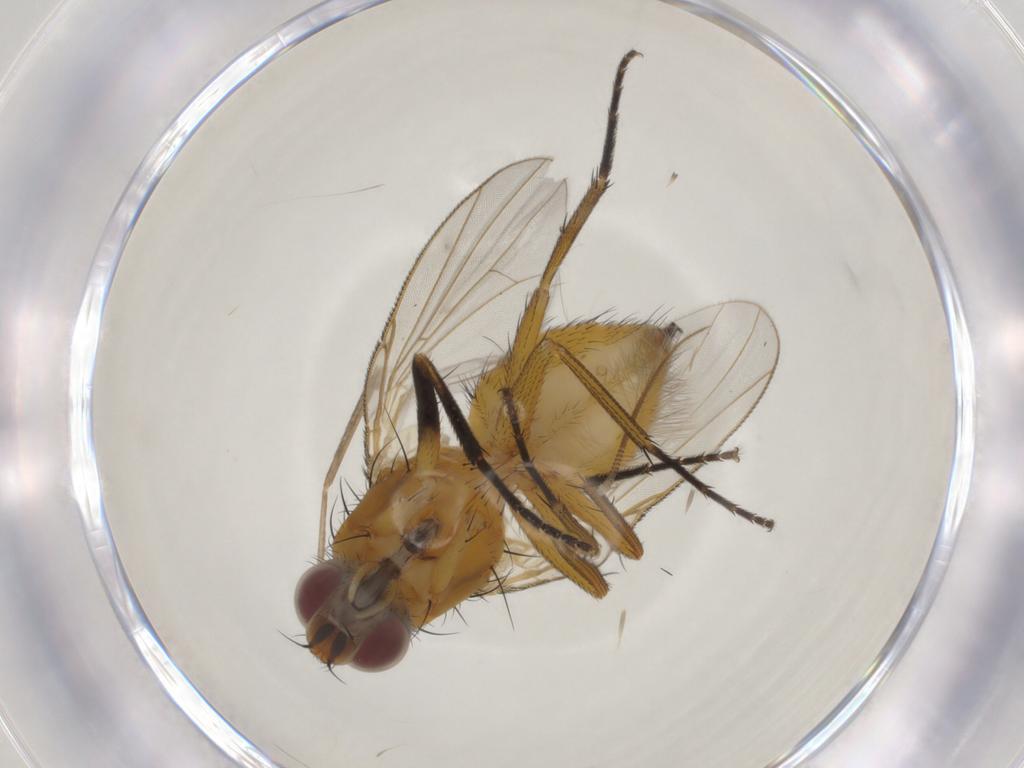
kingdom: Animalia
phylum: Arthropoda
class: Insecta
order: Diptera
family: Muscidae
